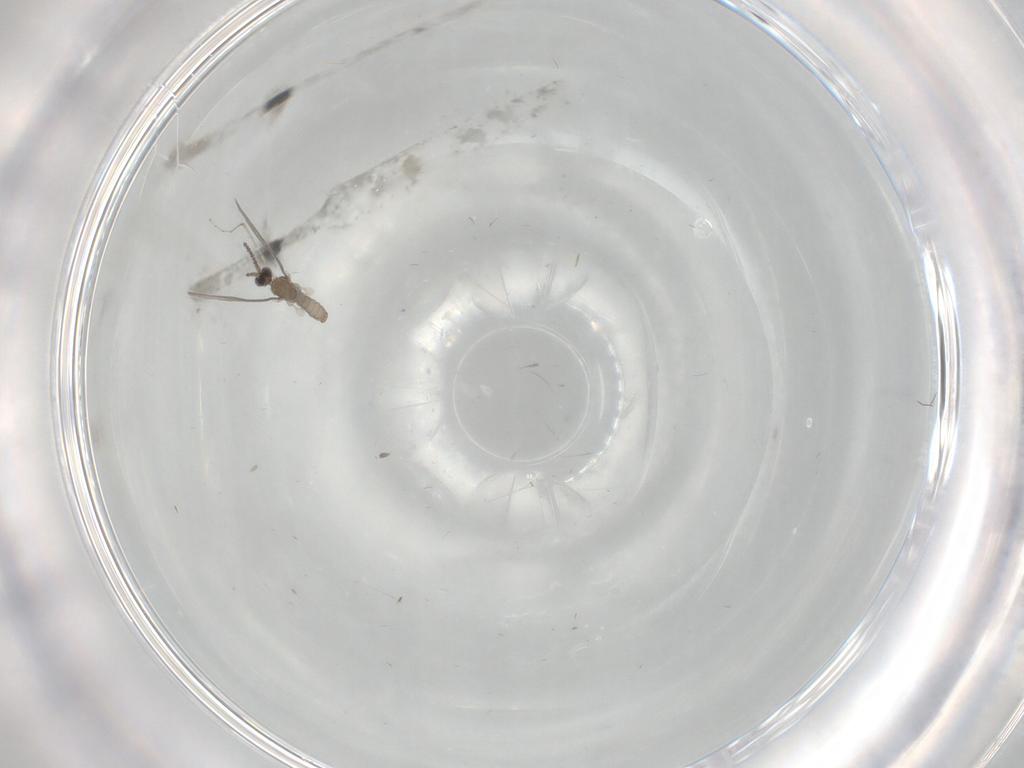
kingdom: Animalia
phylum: Arthropoda
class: Insecta
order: Diptera
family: Cecidomyiidae
